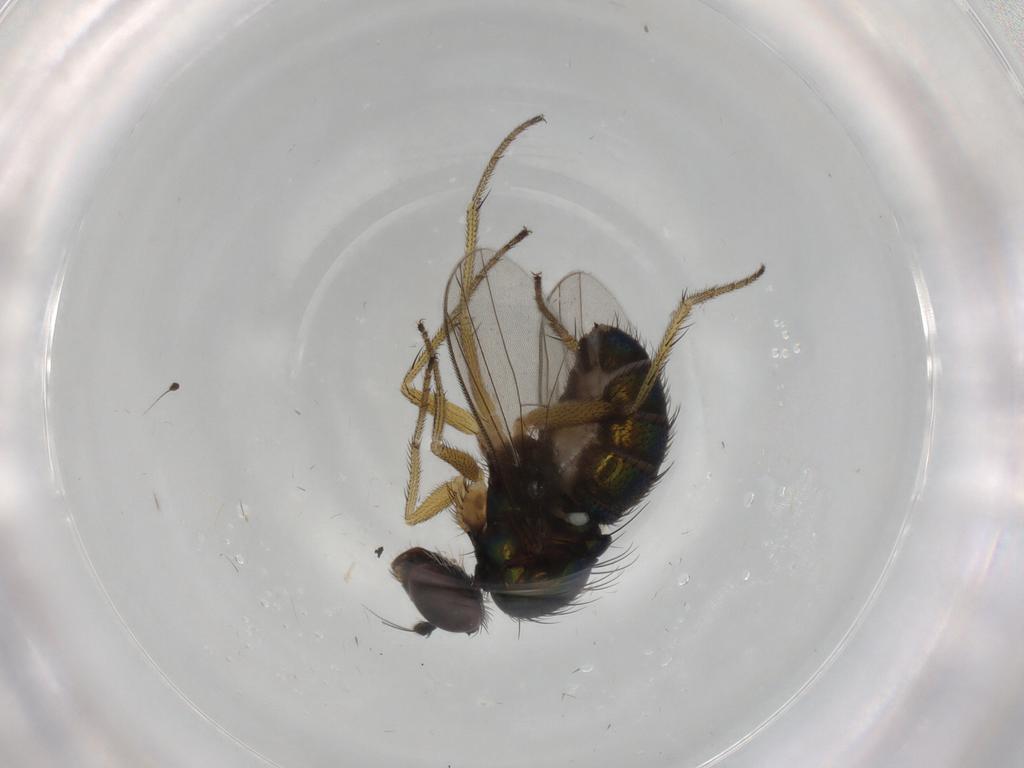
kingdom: Animalia
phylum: Arthropoda
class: Insecta
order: Diptera
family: Dolichopodidae
